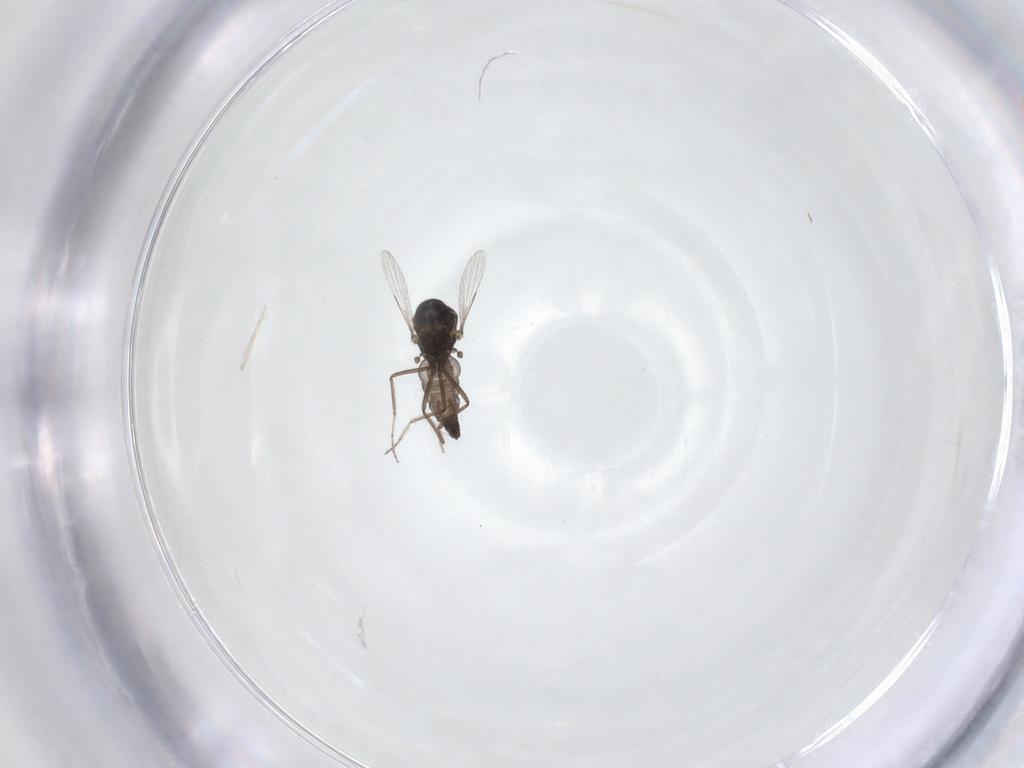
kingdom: Animalia
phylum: Arthropoda
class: Insecta
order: Diptera
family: Ceratopogonidae
